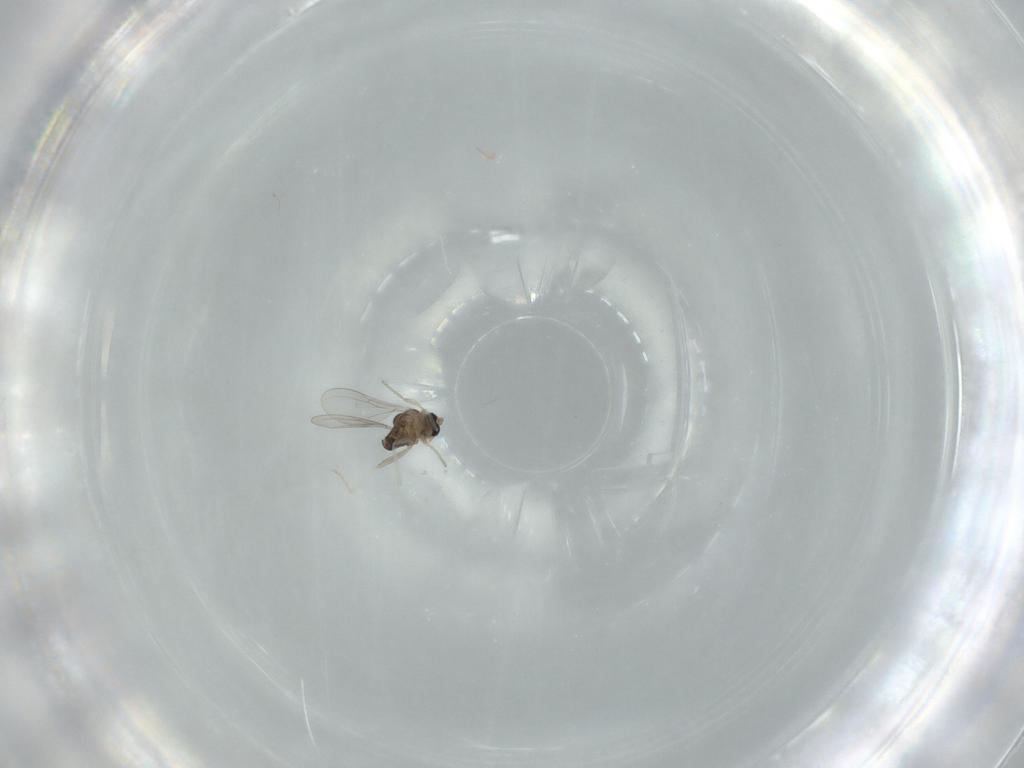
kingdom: Animalia
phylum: Arthropoda
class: Insecta
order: Diptera
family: Cecidomyiidae
